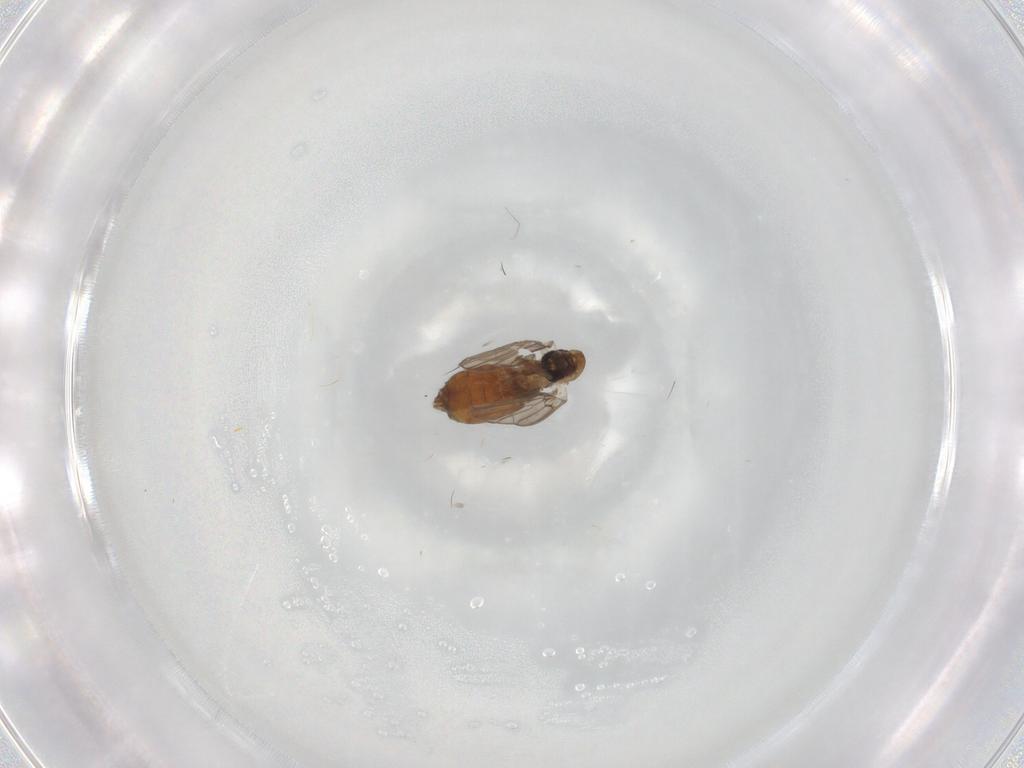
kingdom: Animalia
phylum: Arthropoda
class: Insecta
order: Diptera
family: Psychodidae
